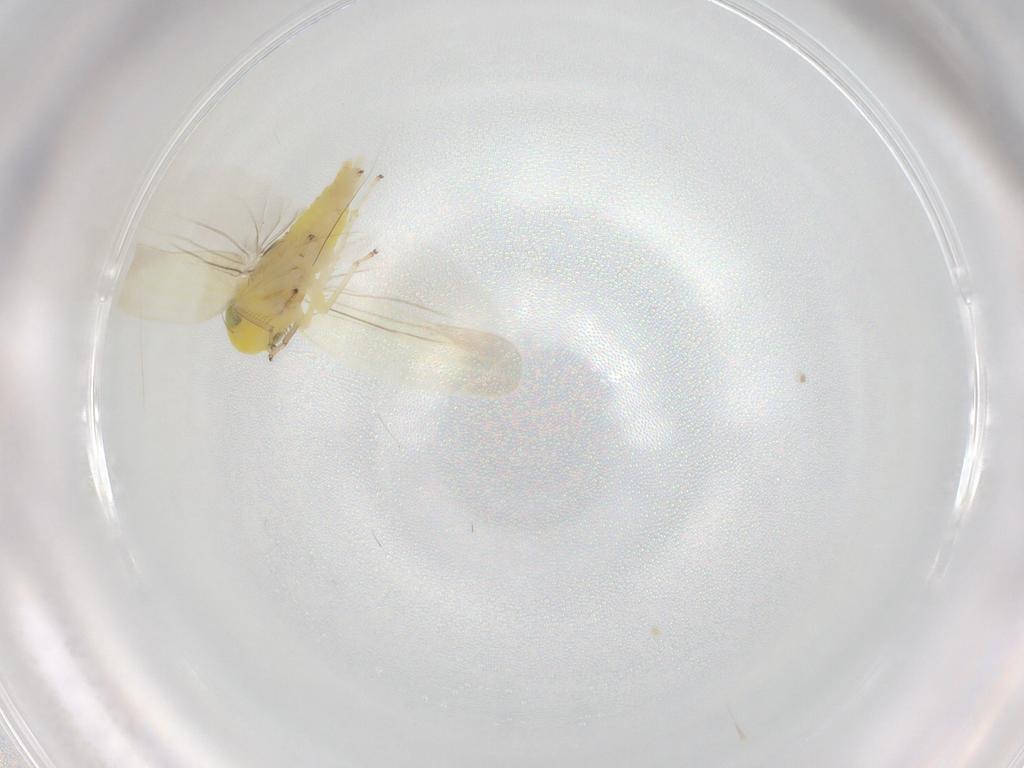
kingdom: Animalia
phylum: Arthropoda
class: Insecta
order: Hemiptera
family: Cicadellidae
